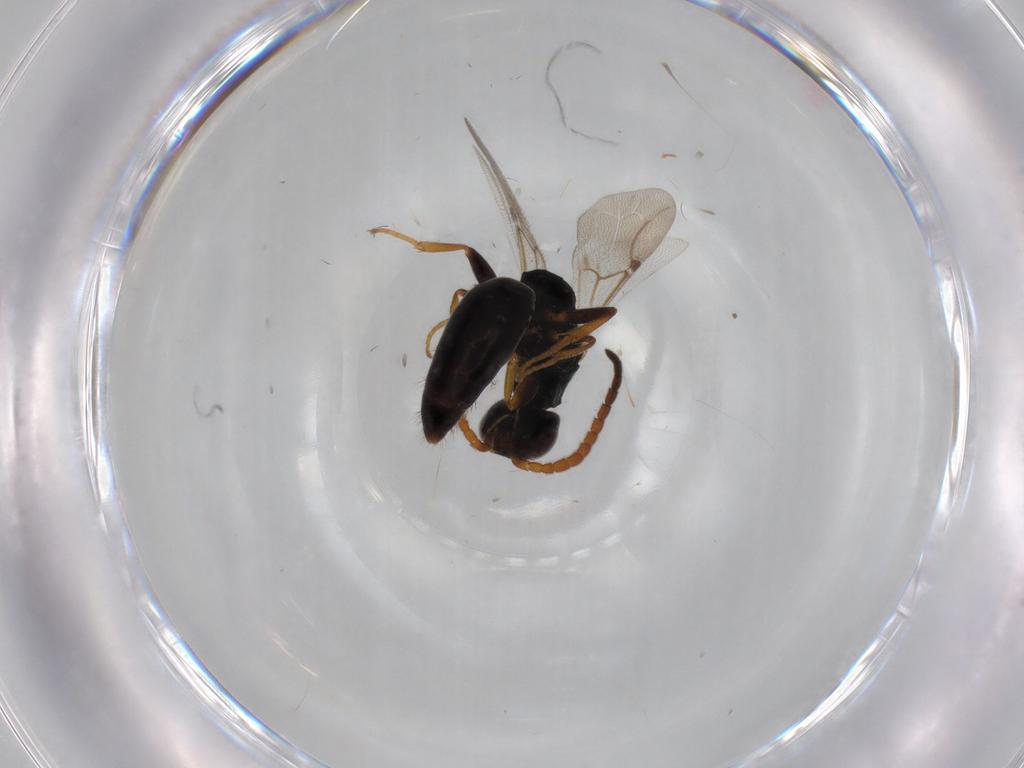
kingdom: Animalia
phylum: Arthropoda
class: Insecta
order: Hymenoptera
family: Bethylidae
